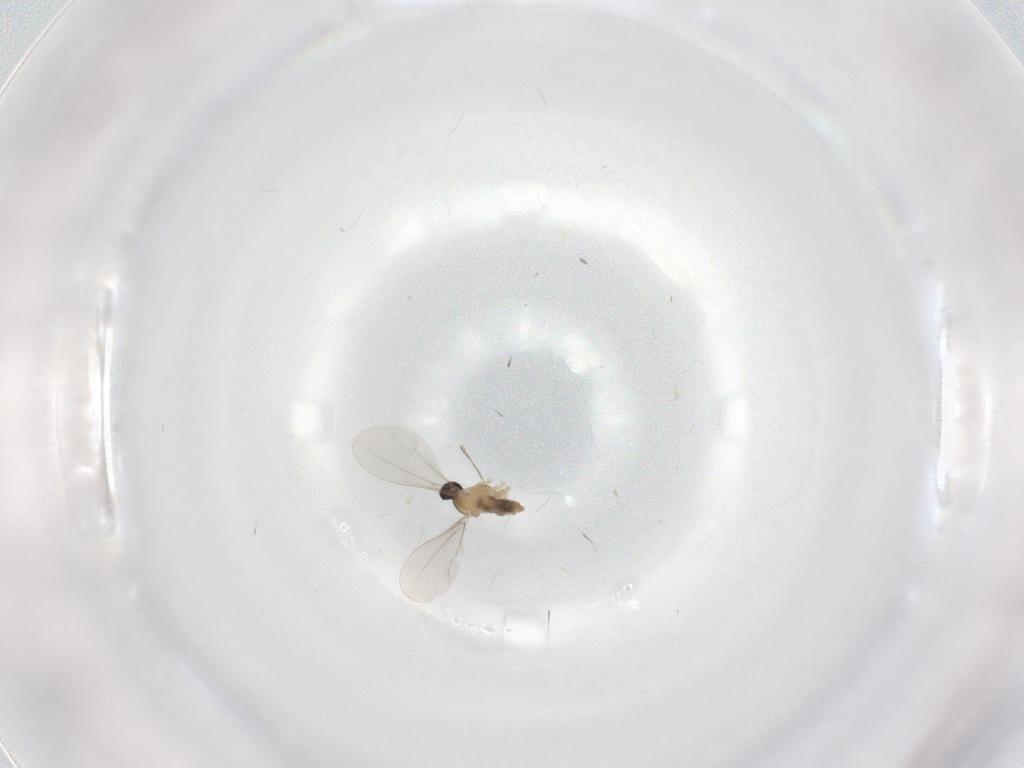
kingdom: Animalia
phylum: Arthropoda
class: Insecta
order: Diptera
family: Cecidomyiidae
